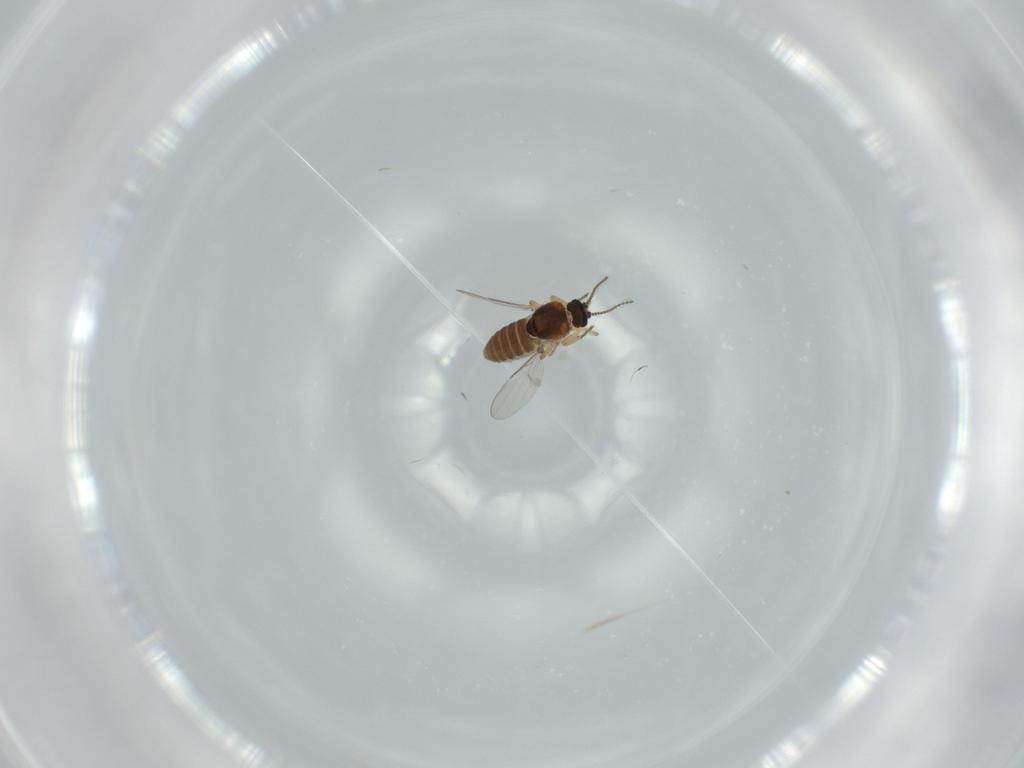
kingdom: Animalia
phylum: Arthropoda
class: Insecta
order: Diptera
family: Ceratopogonidae
